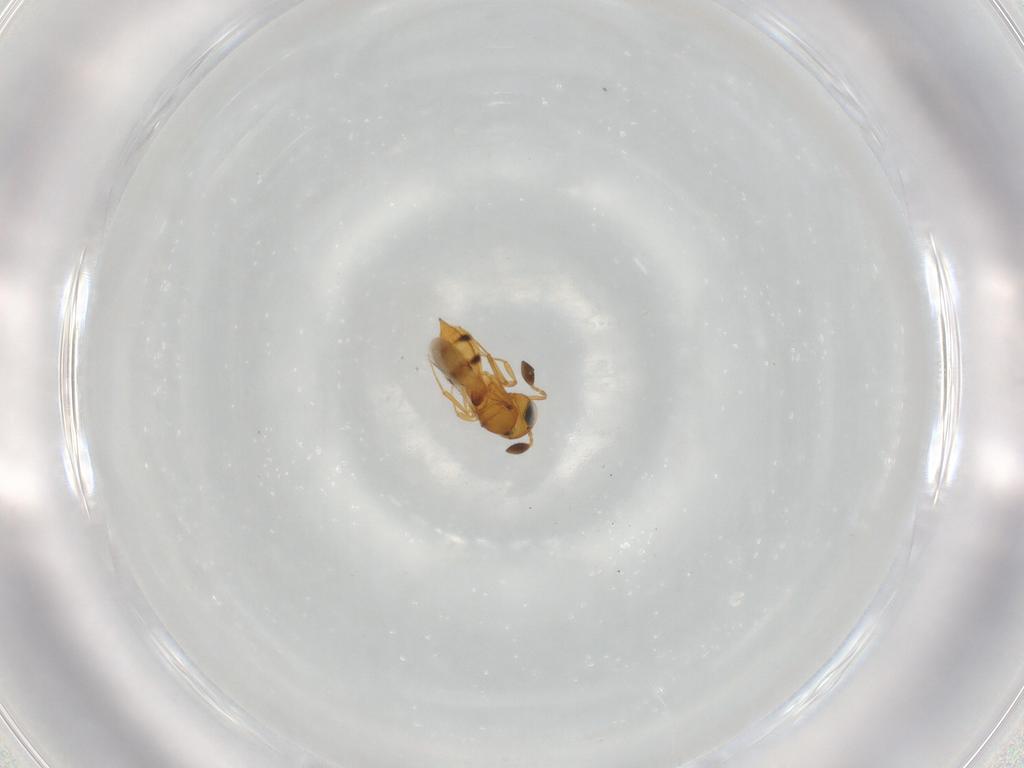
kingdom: Animalia
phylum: Arthropoda
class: Insecta
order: Hymenoptera
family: Scelionidae
